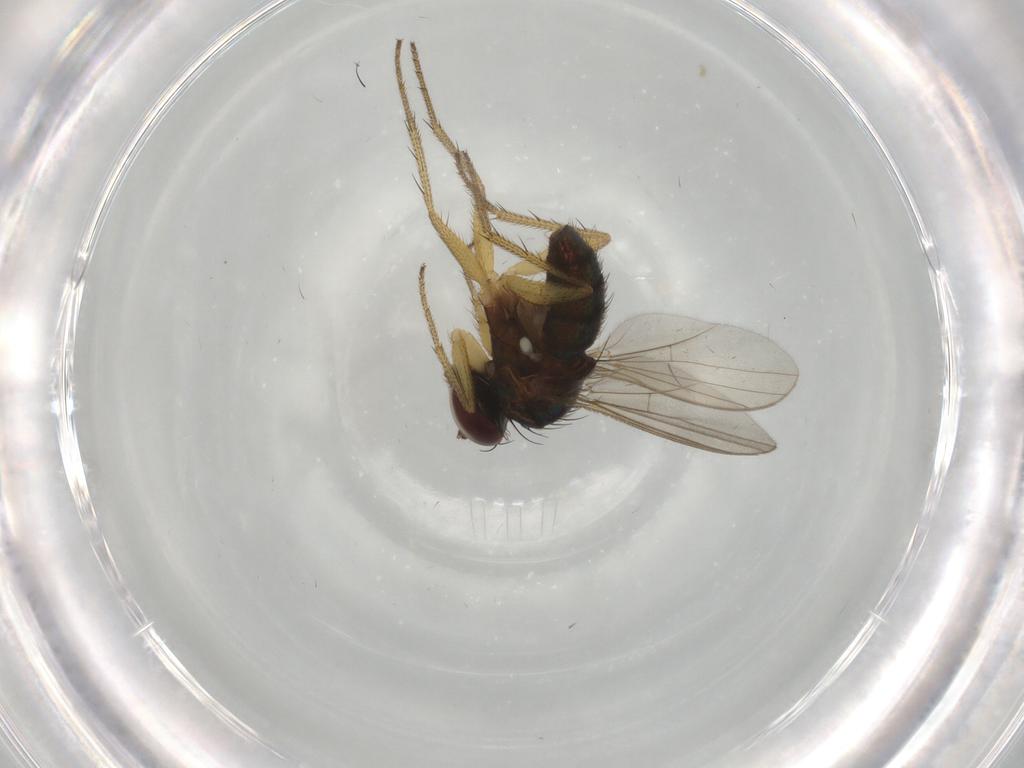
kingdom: Animalia
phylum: Arthropoda
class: Insecta
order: Diptera
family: Dolichopodidae
